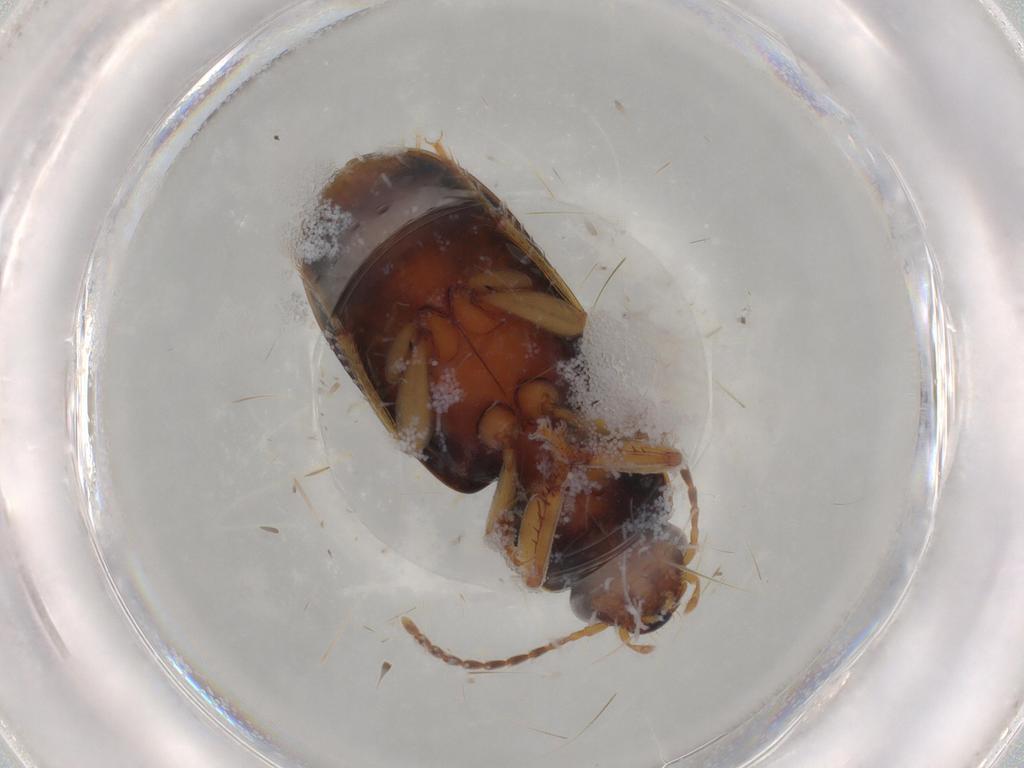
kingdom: Animalia
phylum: Arthropoda
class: Insecta
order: Coleoptera
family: Carabidae
